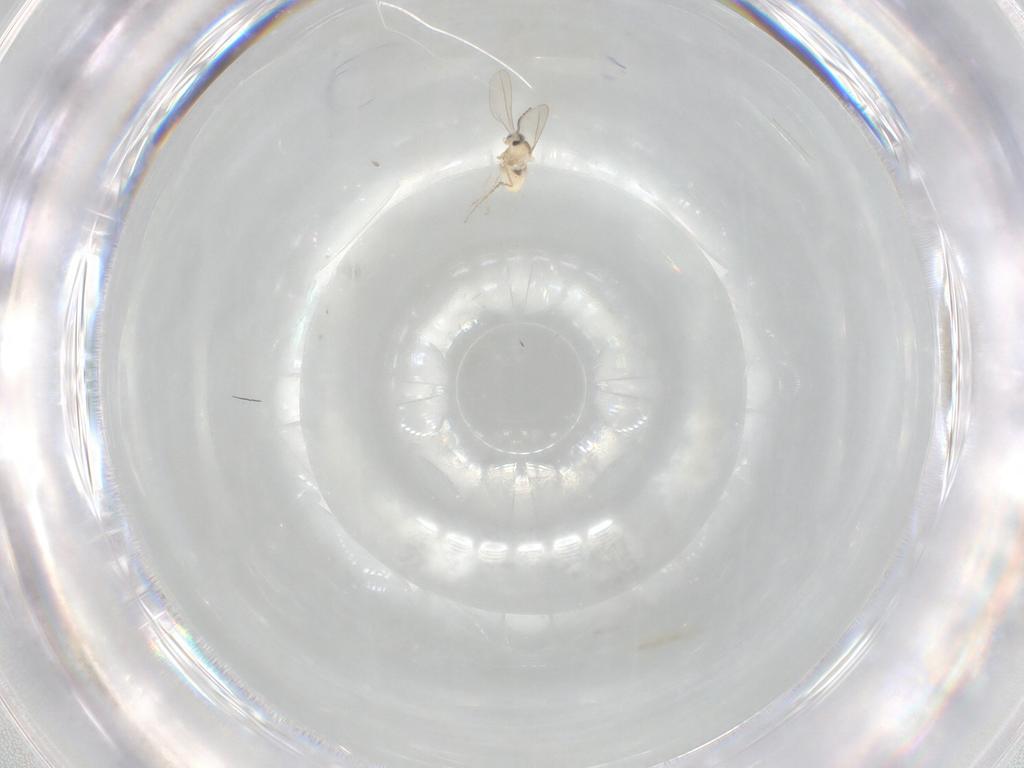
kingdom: Animalia
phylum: Arthropoda
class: Insecta
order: Diptera
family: Cecidomyiidae
